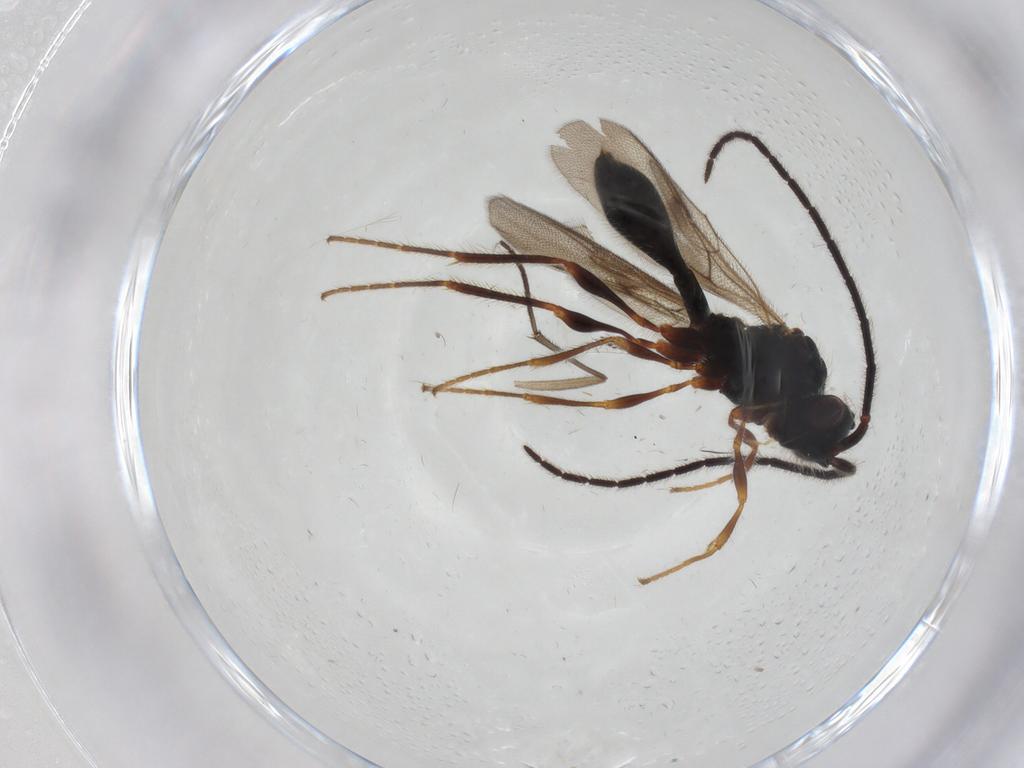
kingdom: Animalia
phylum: Arthropoda
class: Insecta
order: Hymenoptera
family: Diapriidae
